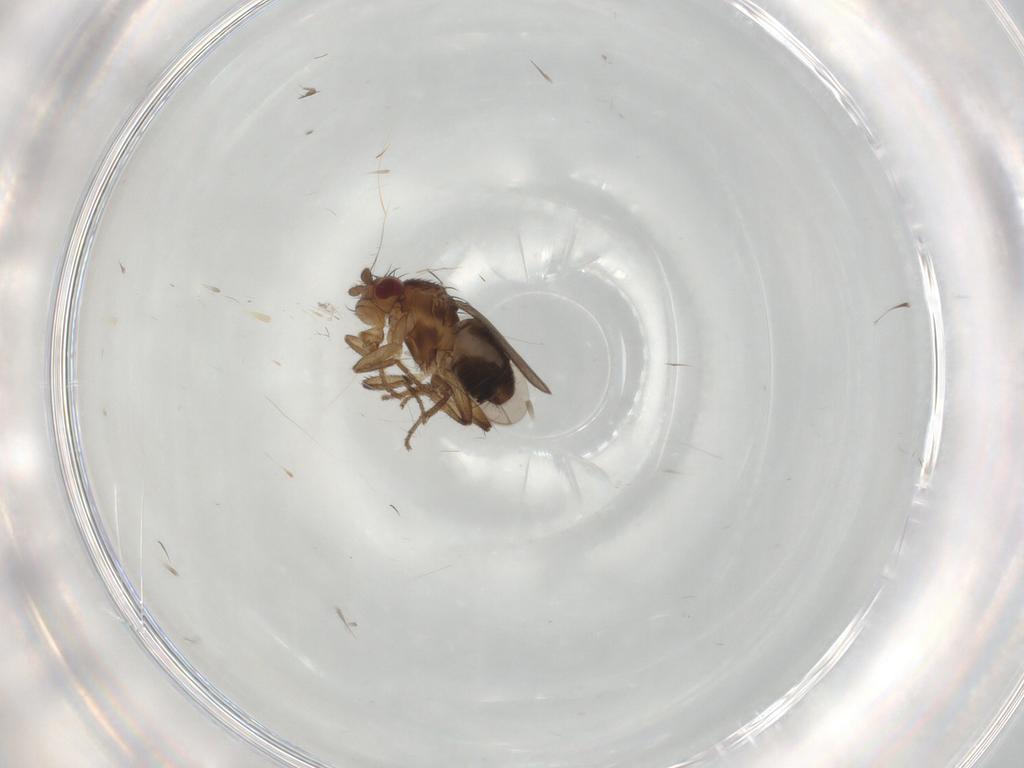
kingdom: Animalia
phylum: Arthropoda
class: Insecta
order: Diptera
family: Sphaeroceridae
